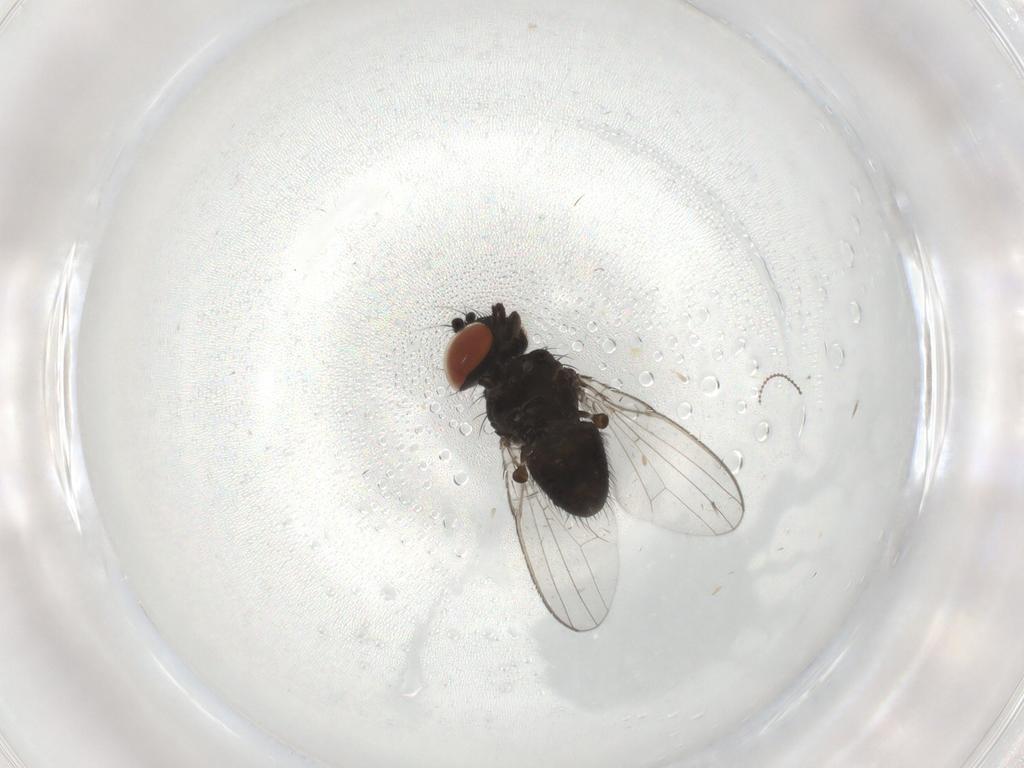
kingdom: Animalia
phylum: Arthropoda
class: Insecta
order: Diptera
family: Milichiidae
